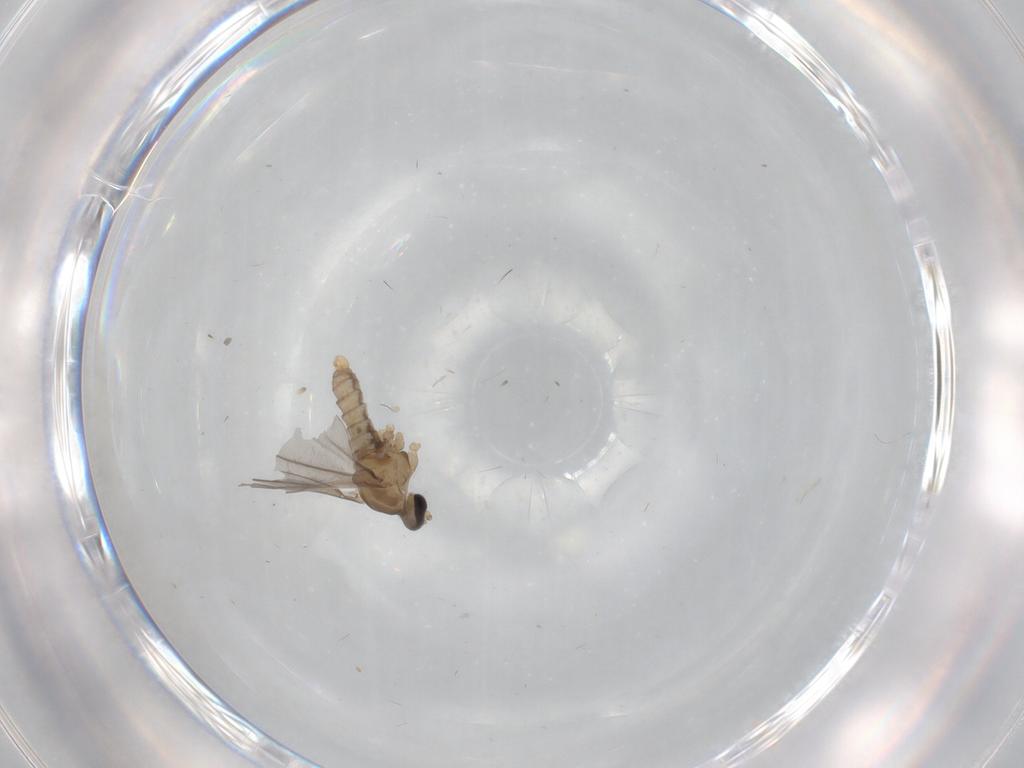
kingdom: Animalia
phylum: Arthropoda
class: Insecta
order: Diptera
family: Cecidomyiidae
